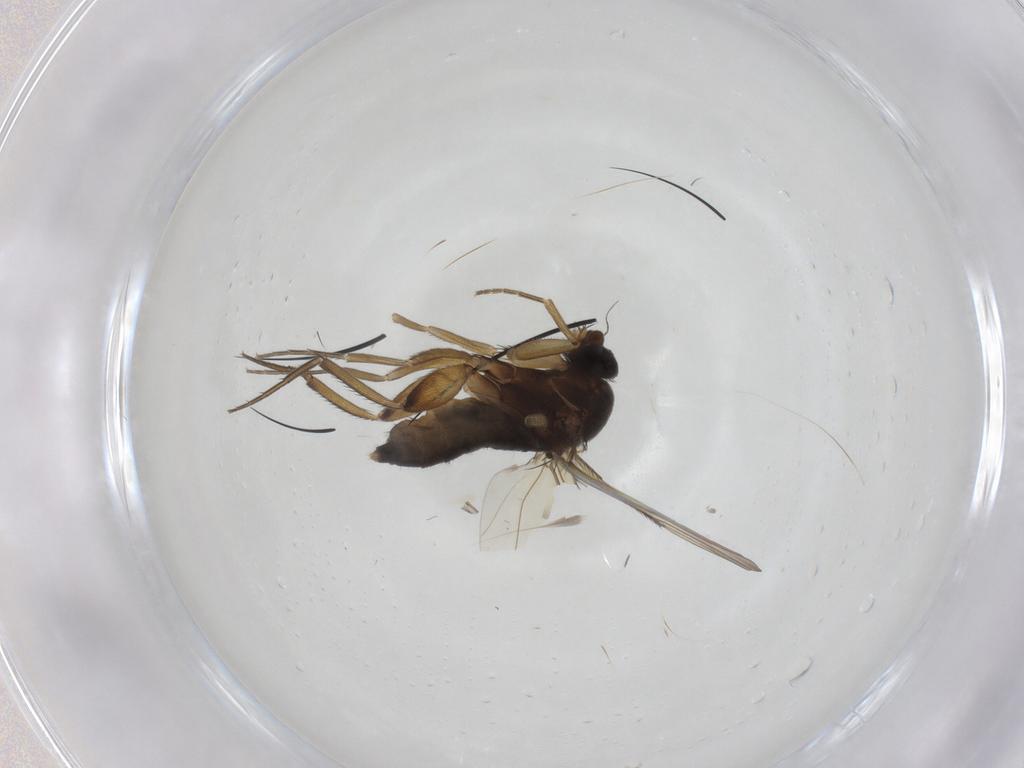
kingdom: Animalia
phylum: Arthropoda
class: Insecta
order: Diptera
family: Phoridae
